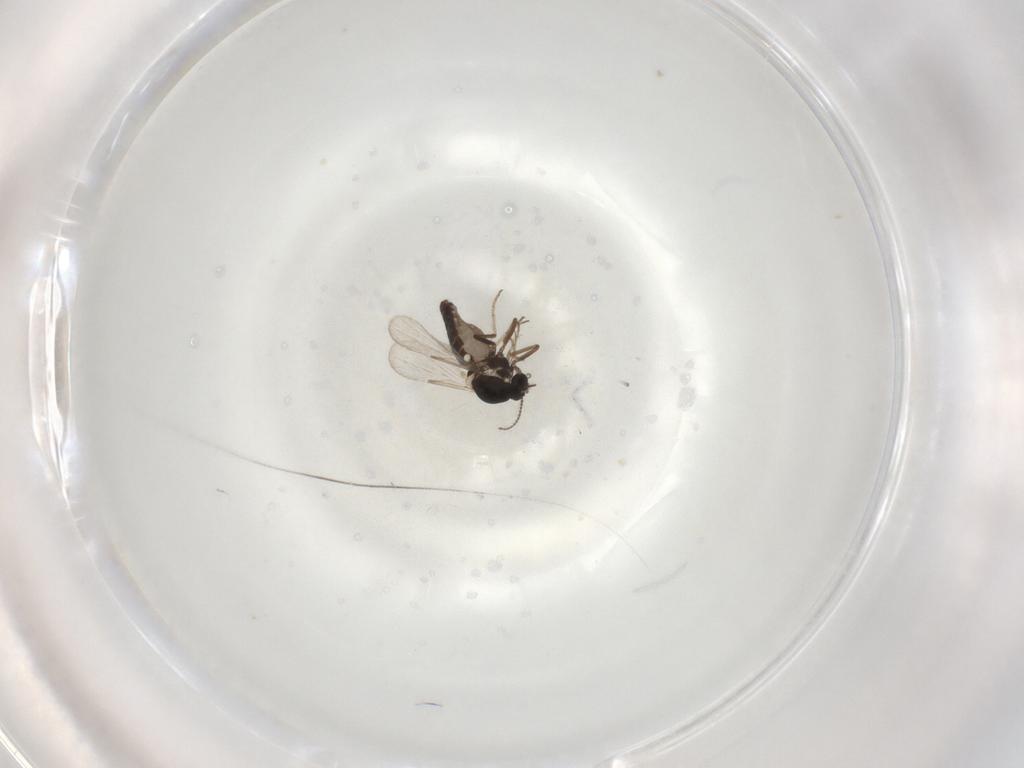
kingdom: Animalia
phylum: Arthropoda
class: Insecta
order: Diptera
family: Ceratopogonidae
